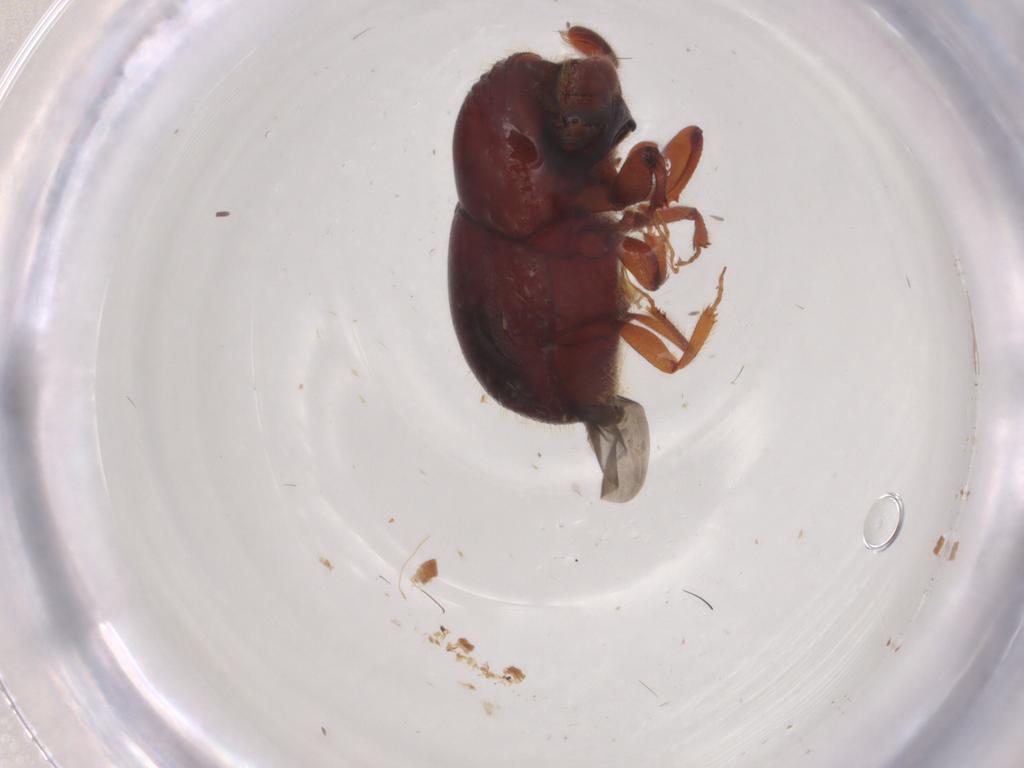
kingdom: Animalia
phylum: Arthropoda
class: Insecta
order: Coleoptera
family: Curculionidae
